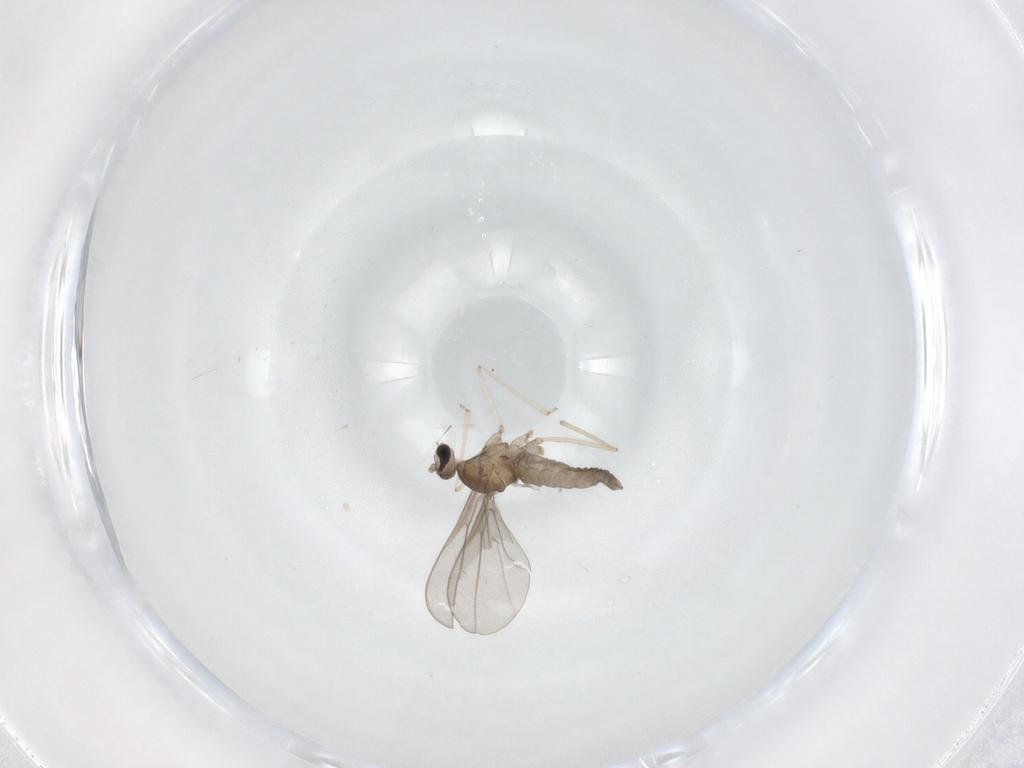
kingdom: Animalia
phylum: Arthropoda
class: Insecta
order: Diptera
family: Cecidomyiidae
